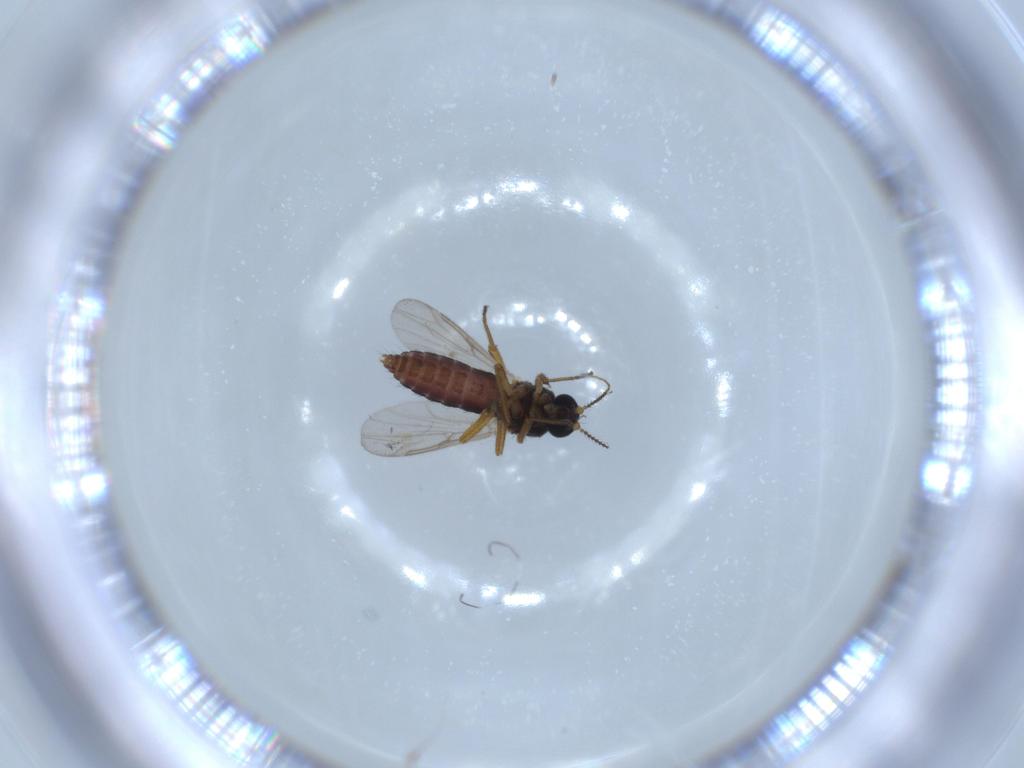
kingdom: Animalia
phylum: Arthropoda
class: Insecta
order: Diptera
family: Ceratopogonidae
